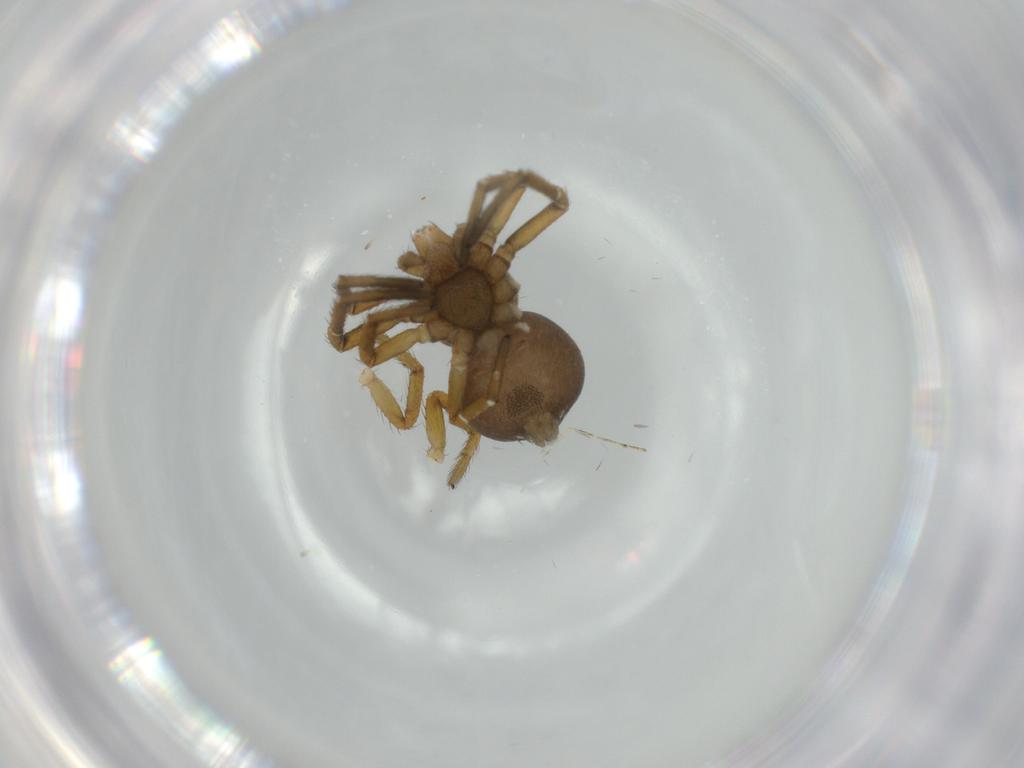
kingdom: Animalia
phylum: Arthropoda
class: Arachnida
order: Araneae
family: Thomisidae
